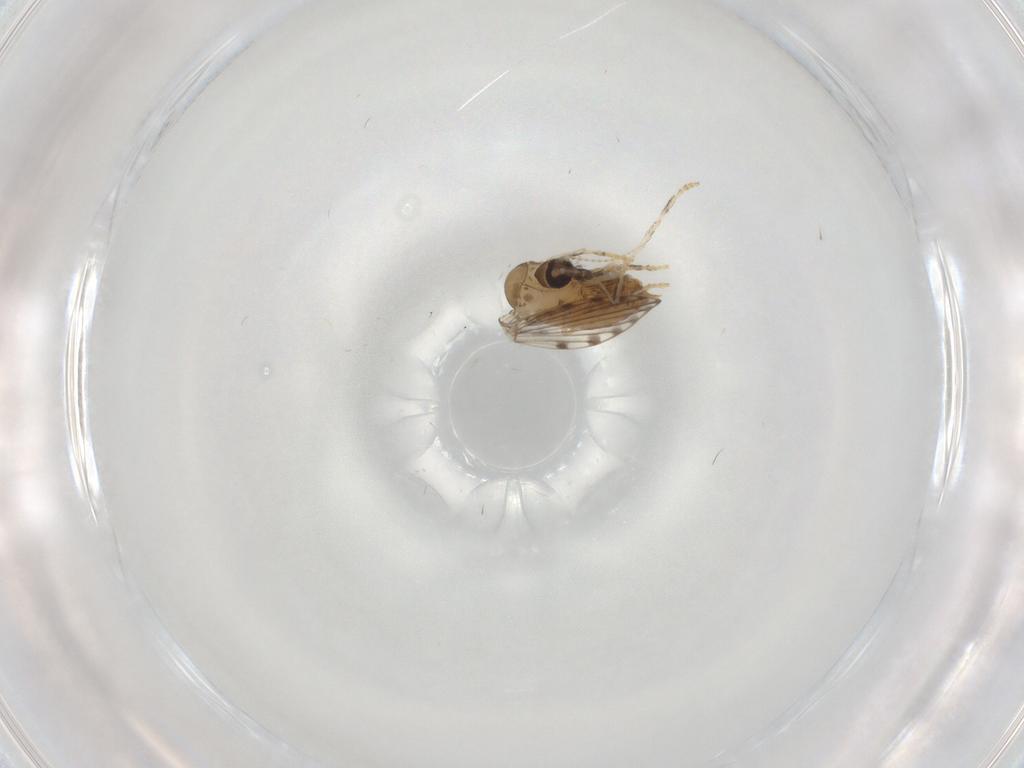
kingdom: Animalia
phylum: Arthropoda
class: Insecta
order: Diptera
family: Psychodidae
